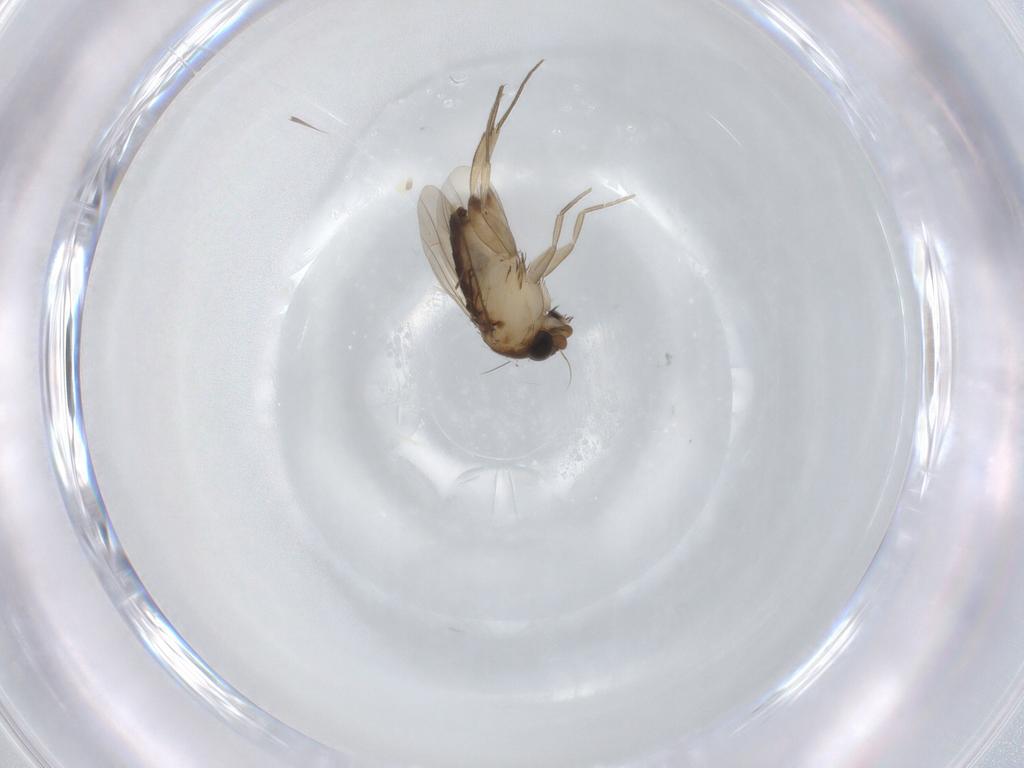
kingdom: Animalia
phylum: Arthropoda
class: Insecta
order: Diptera
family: Phoridae
